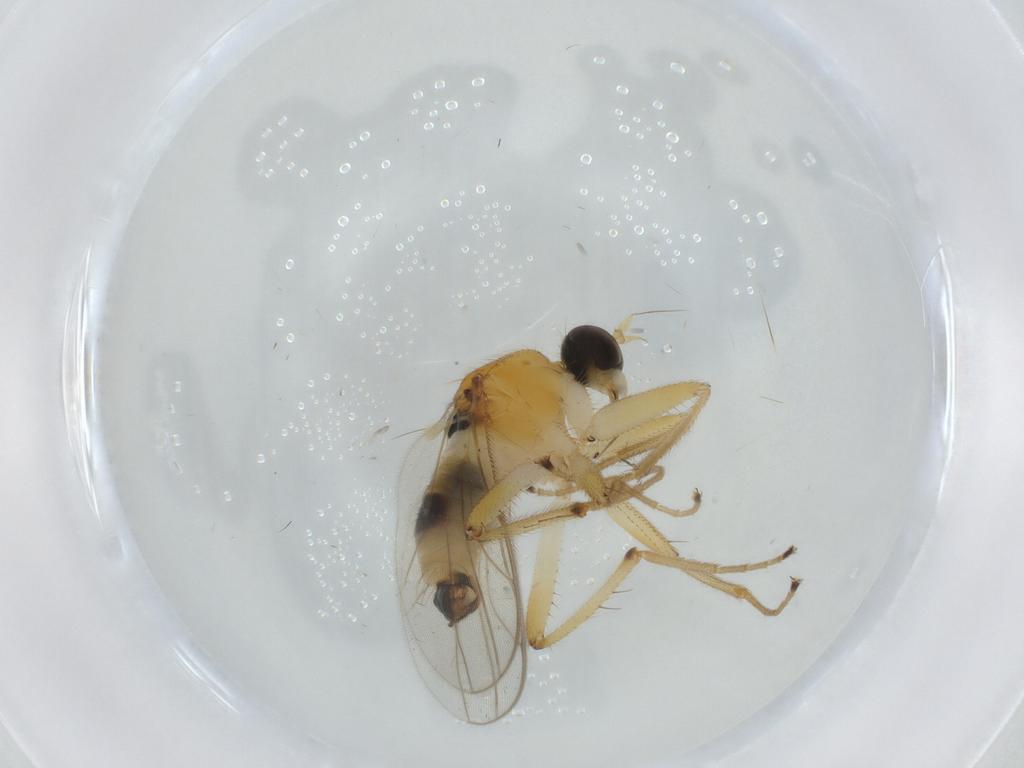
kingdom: Animalia
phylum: Arthropoda
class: Insecta
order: Diptera
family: Hybotidae
